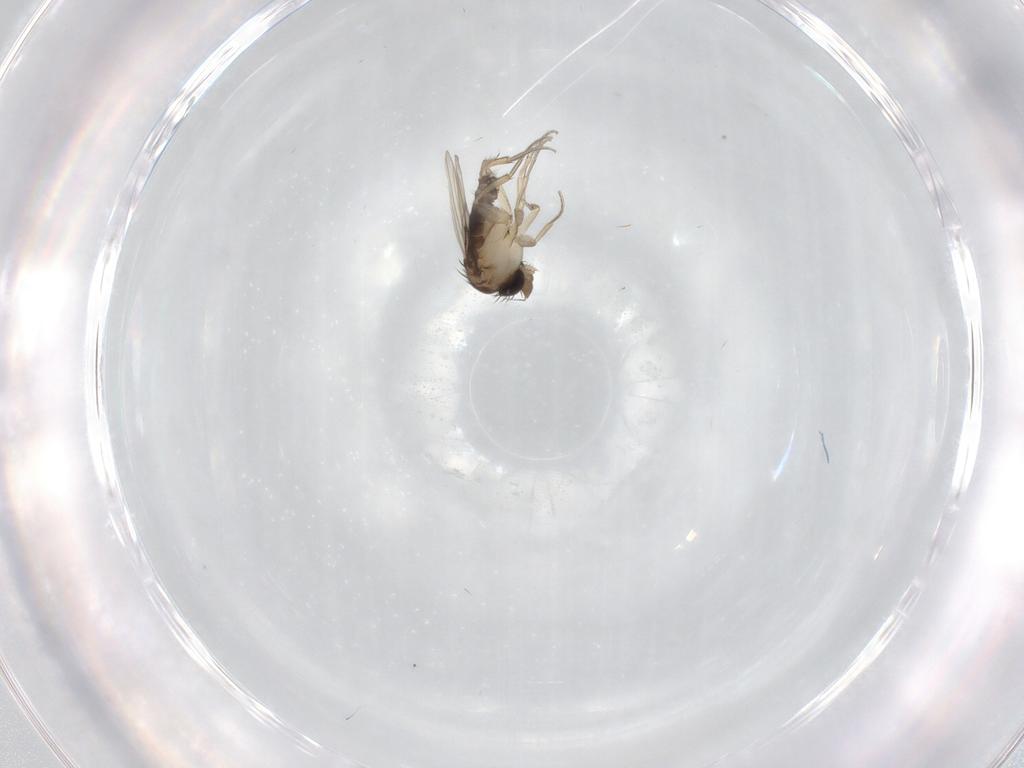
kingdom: Animalia
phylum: Arthropoda
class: Insecta
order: Diptera
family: Phoridae
